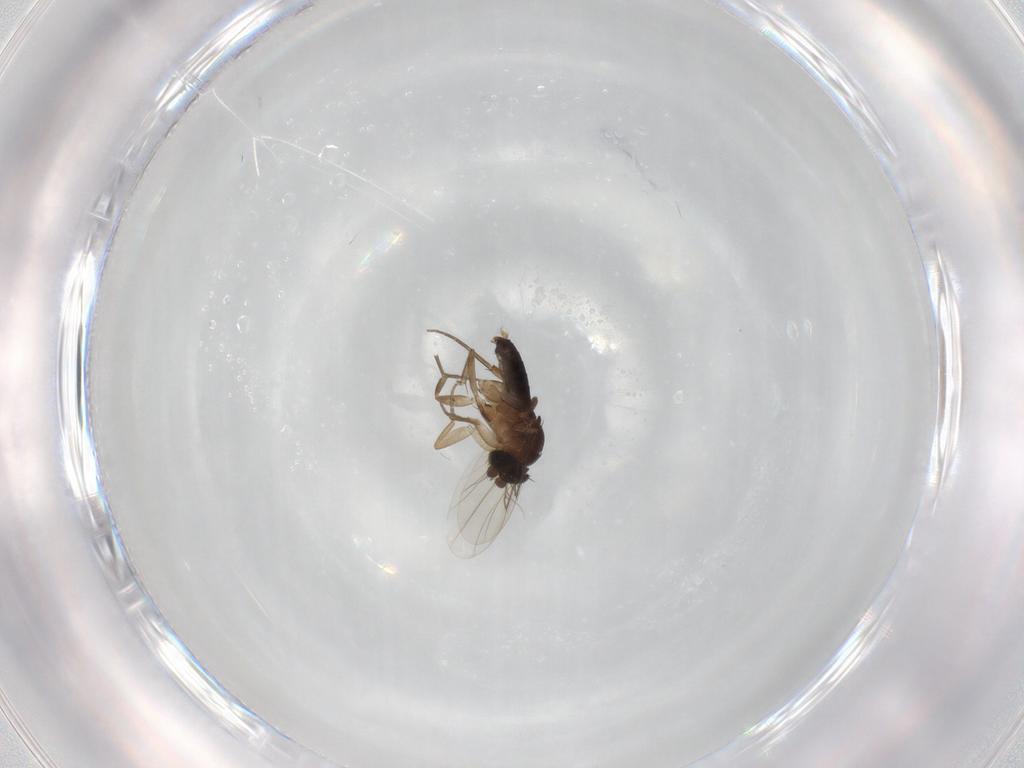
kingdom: Animalia
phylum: Arthropoda
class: Insecta
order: Diptera
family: Phoridae
